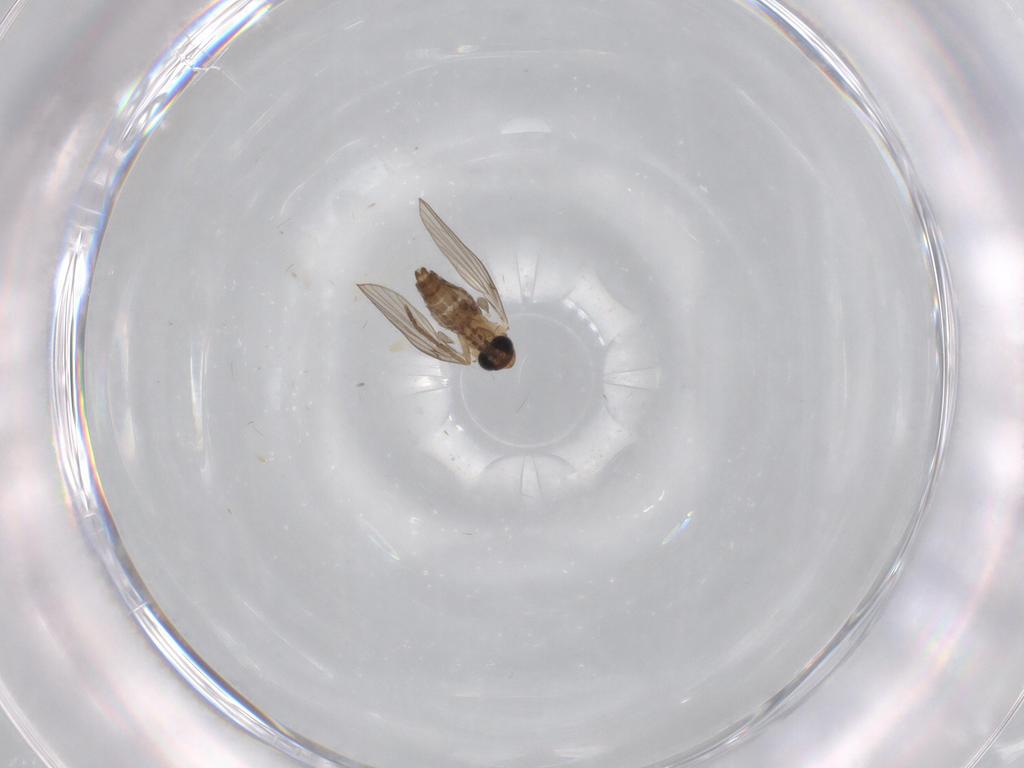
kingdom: Animalia
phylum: Arthropoda
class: Insecta
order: Diptera
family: Psychodidae
